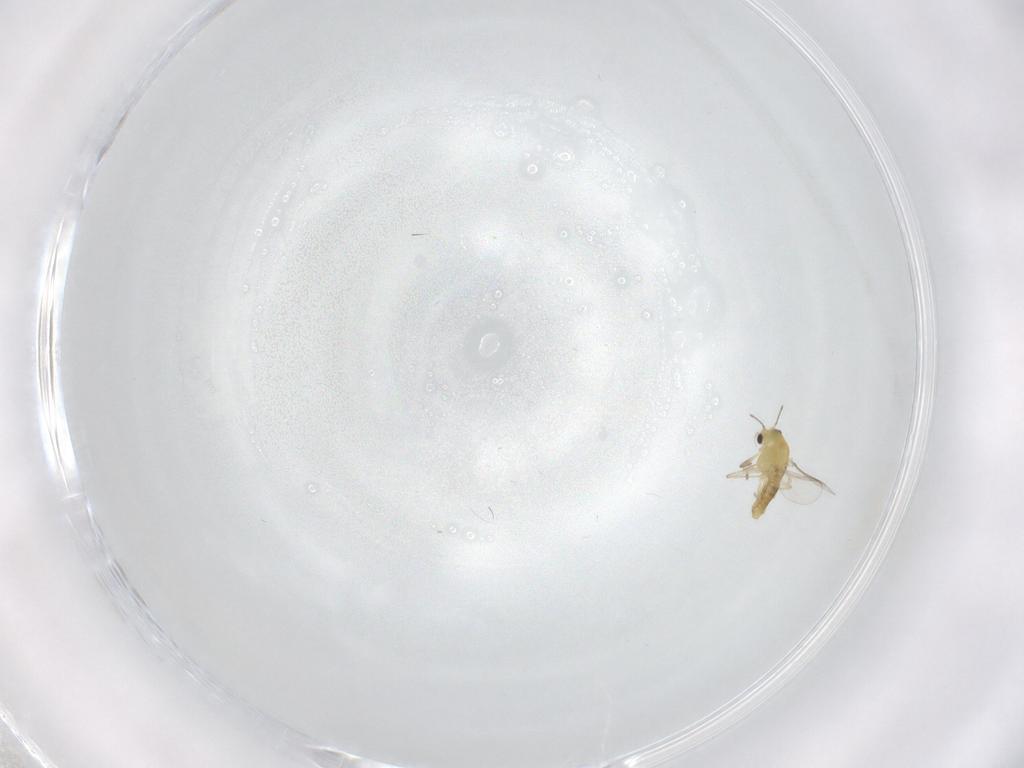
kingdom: Animalia
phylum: Arthropoda
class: Insecta
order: Diptera
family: Chironomidae
